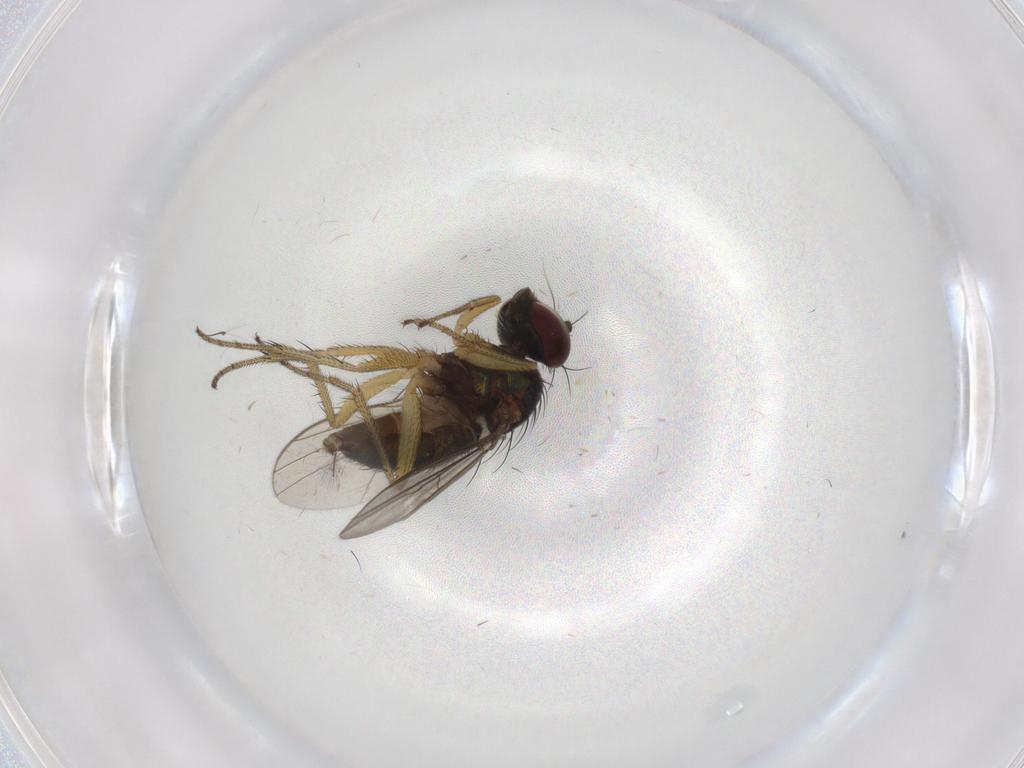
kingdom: Animalia
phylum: Arthropoda
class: Insecta
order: Diptera
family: Chironomidae
